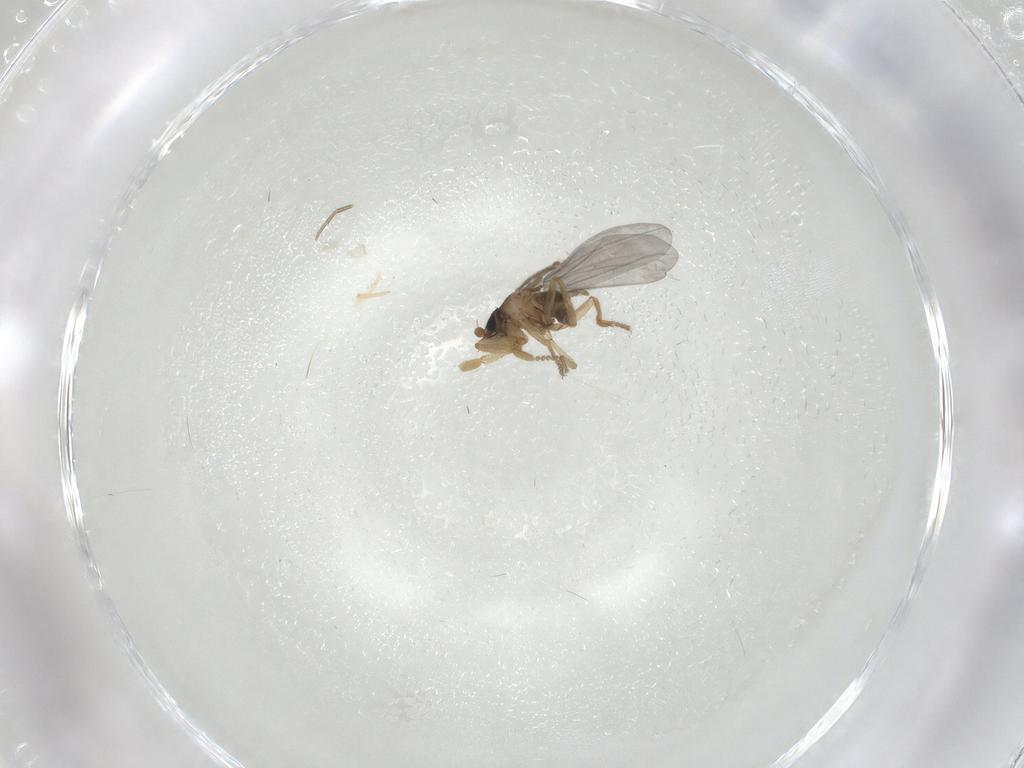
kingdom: Animalia
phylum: Arthropoda
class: Insecta
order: Diptera
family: Phoridae
